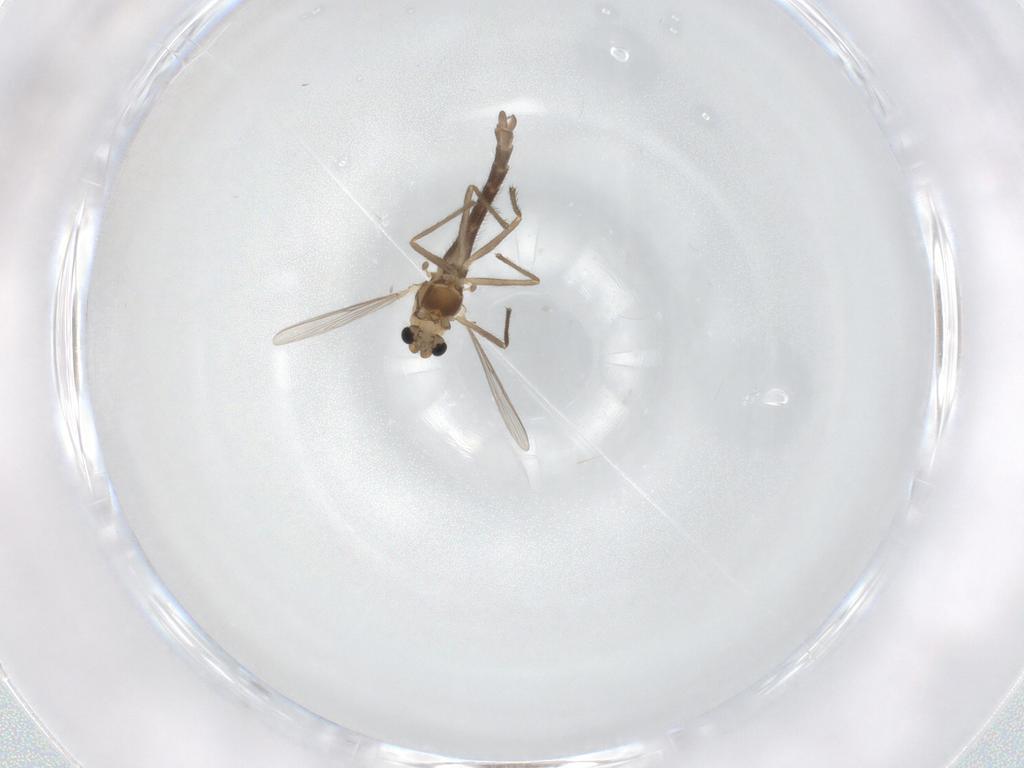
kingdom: Animalia
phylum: Arthropoda
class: Insecta
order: Diptera
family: Chironomidae
